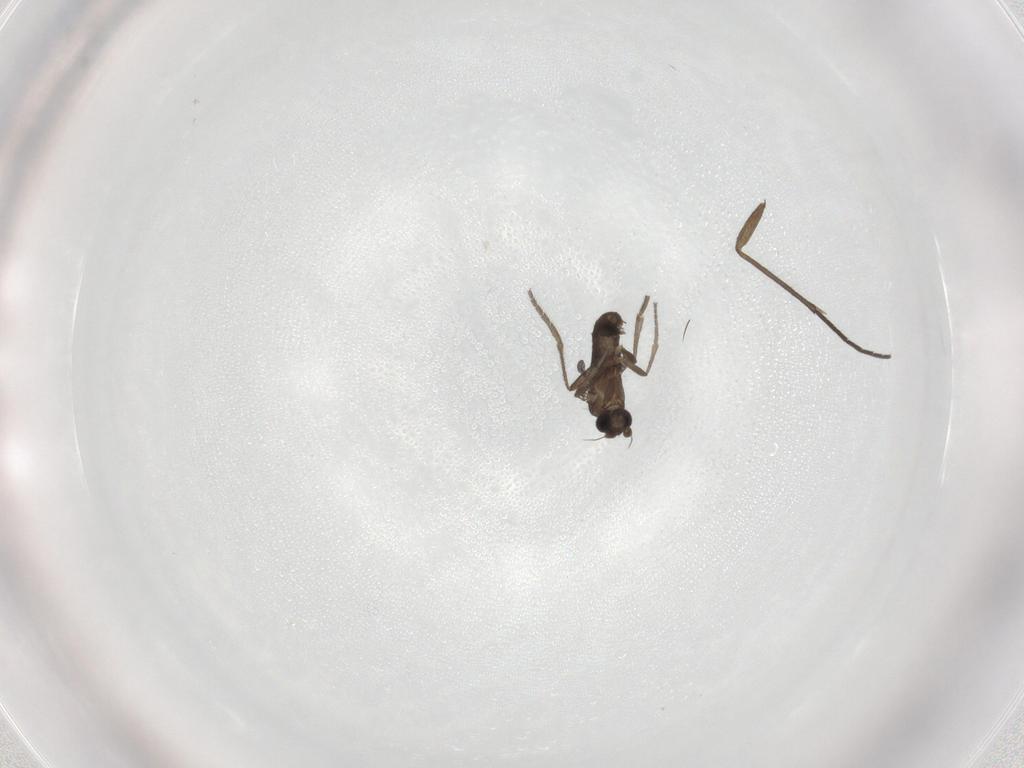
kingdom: Animalia
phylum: Arthropoda
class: Insecta
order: Diptera
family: Phoridae
